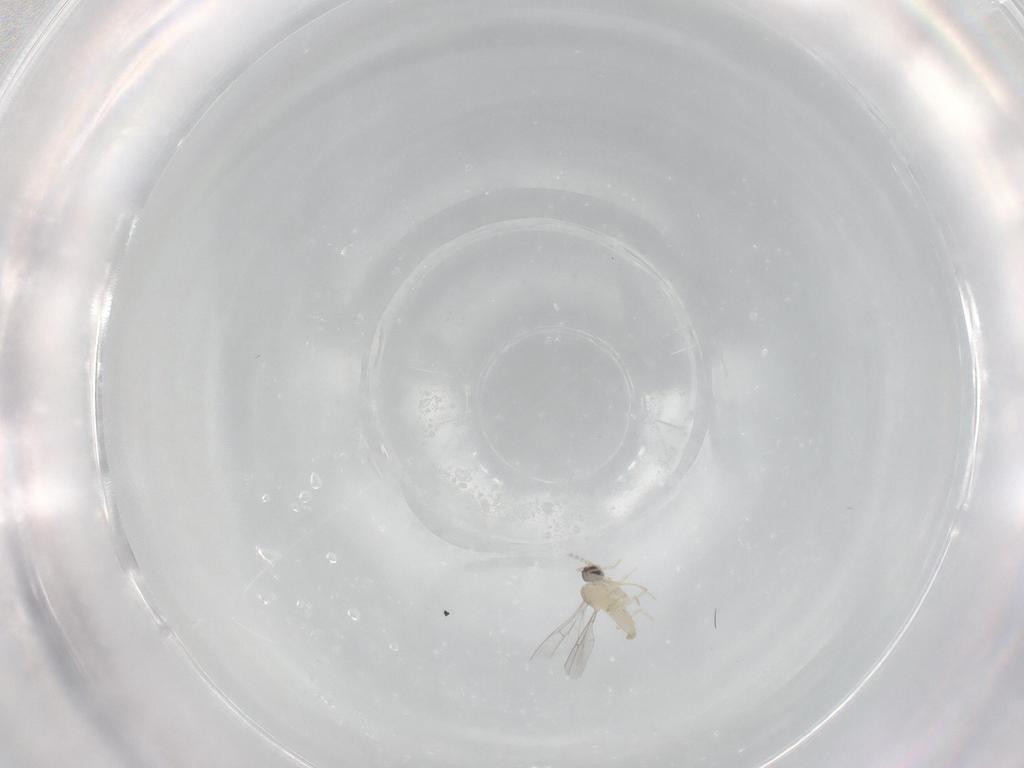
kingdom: Animalia
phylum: Arthropoda
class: Insecta
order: Diptera
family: Cecidomyiidae
